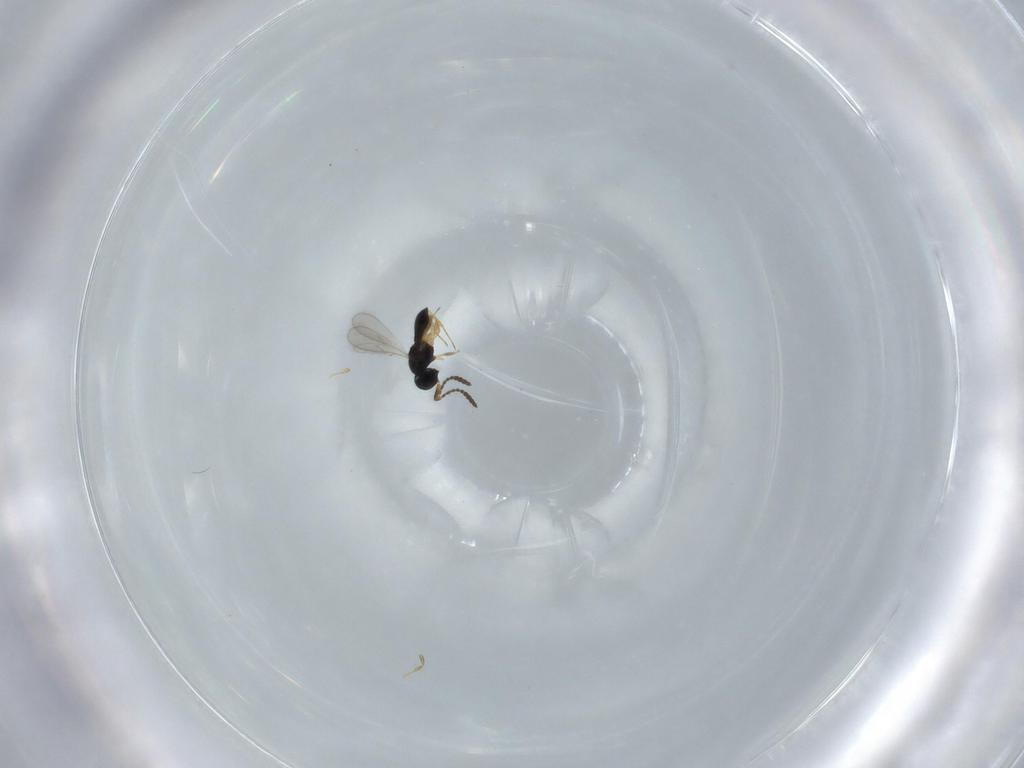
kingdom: Animalia
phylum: Arthropoda
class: Insecta
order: Hymenoptera
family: Scelionidae
